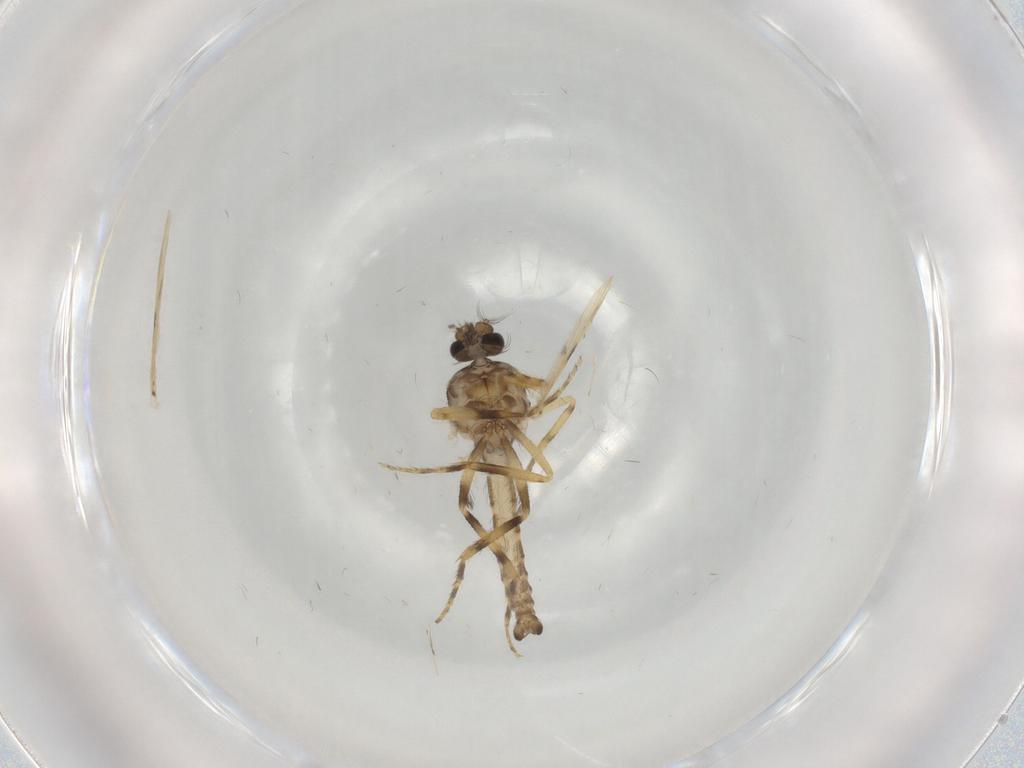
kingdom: Animalia
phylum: Arthropoda
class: Insecta
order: Diptera
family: Ceratopogonidae
